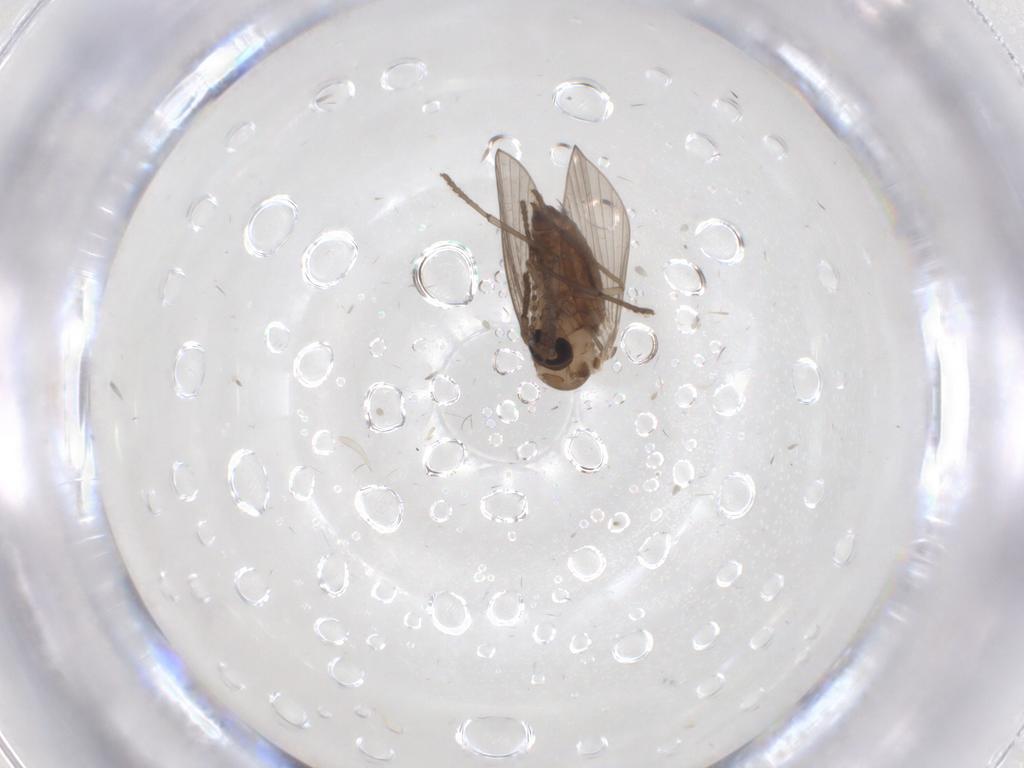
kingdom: Animalia
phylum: Arthropoda
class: Insecta
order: Diptera
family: Psychodidae
